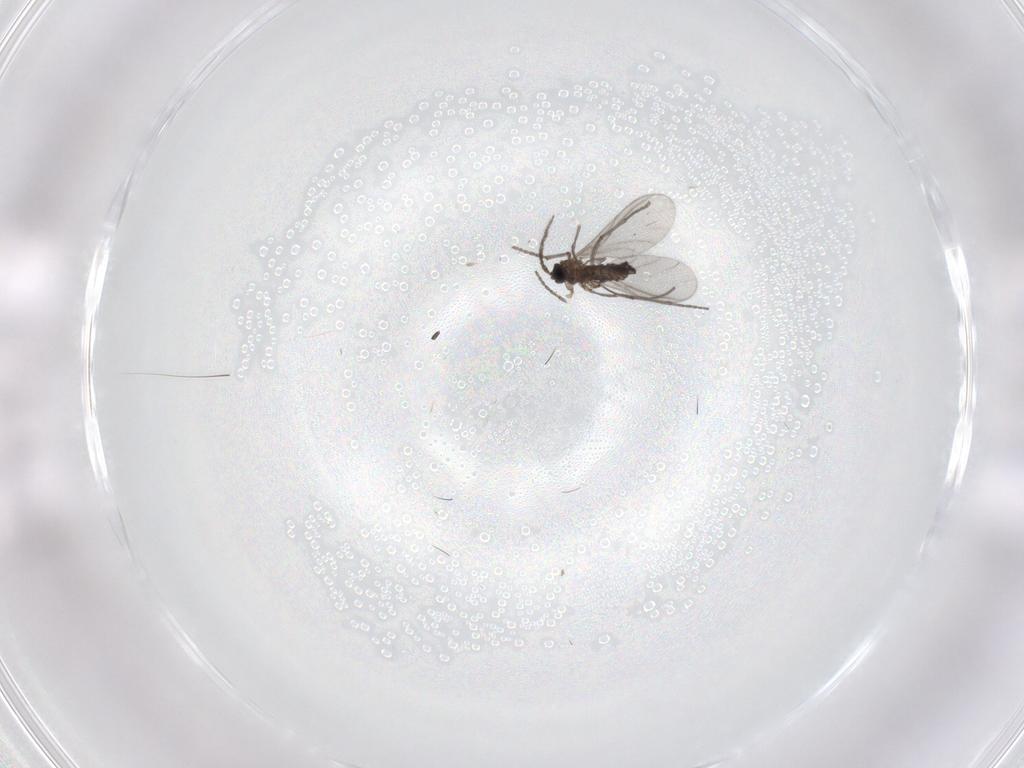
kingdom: Animalia
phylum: Arthropoda
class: Insecta
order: Diptera
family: Sciaridae
